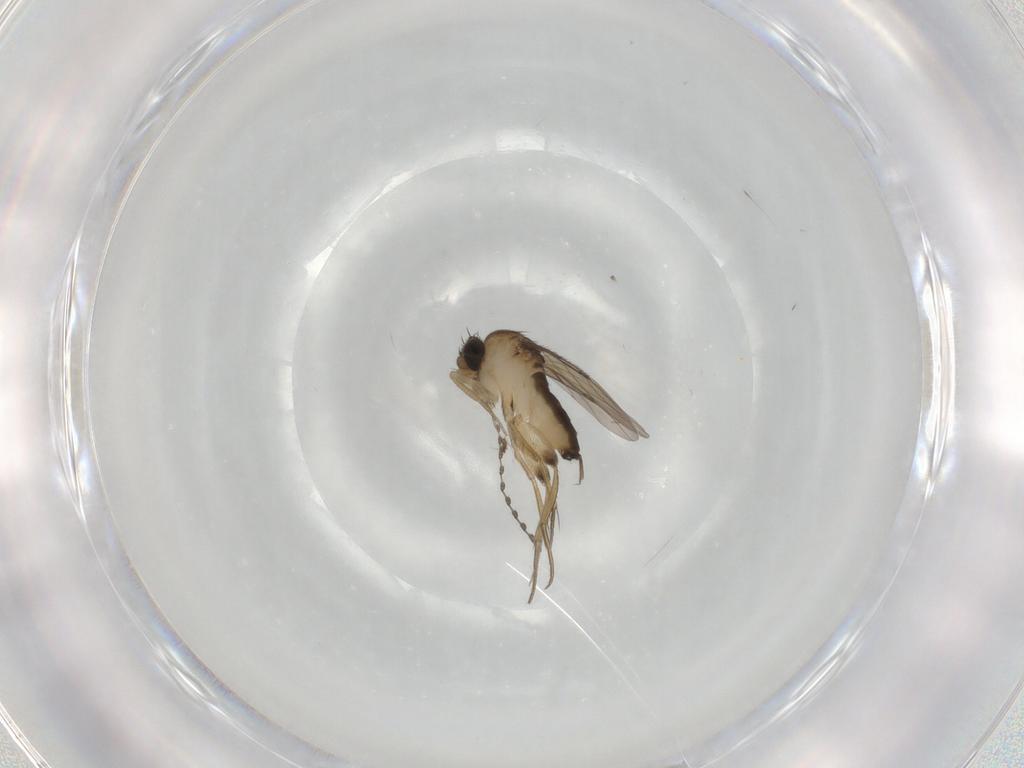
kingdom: Animalia
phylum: Arthropoda
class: Insecta
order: Diptera
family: Phoridae
